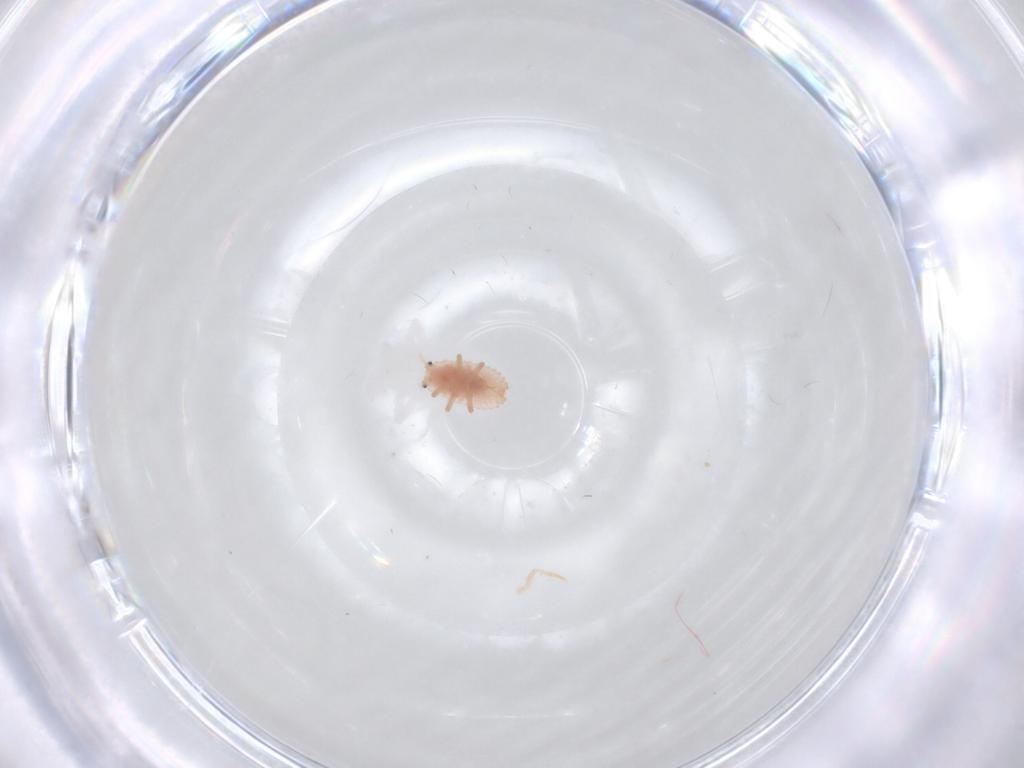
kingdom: Animalia
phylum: Arthropoda
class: Insecta
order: Hemiptera
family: Coccoidea_incertae_sedis
